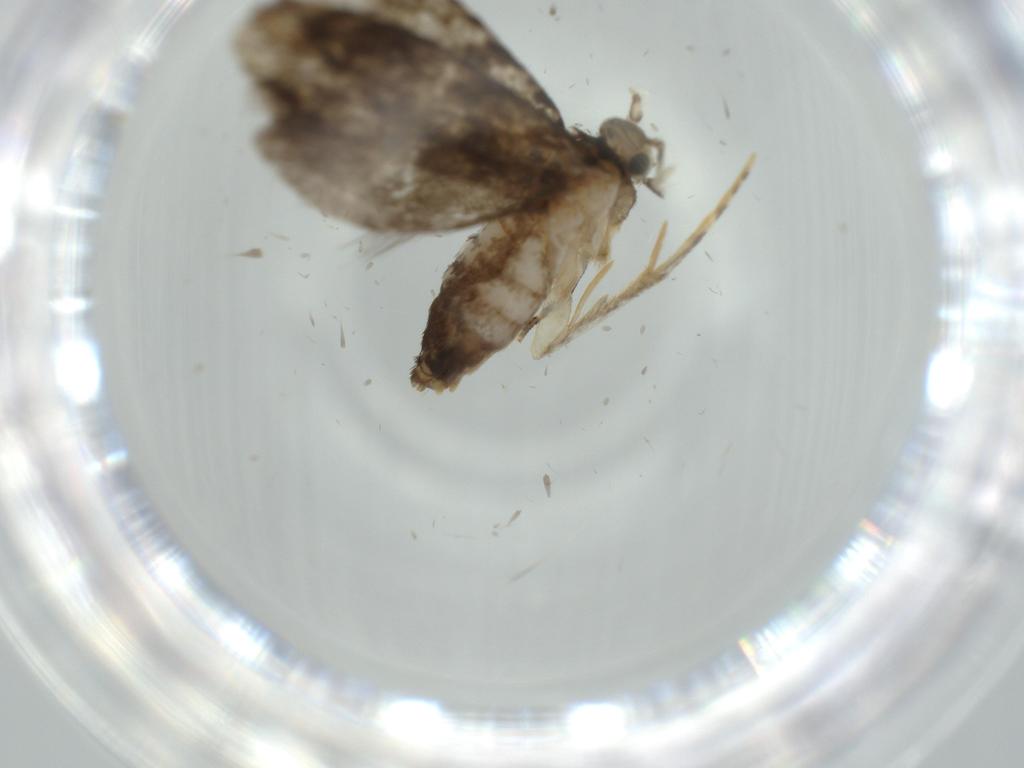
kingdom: Animalia
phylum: Arthropoda
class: Insecta
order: Lepidoptera
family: Tineidae
